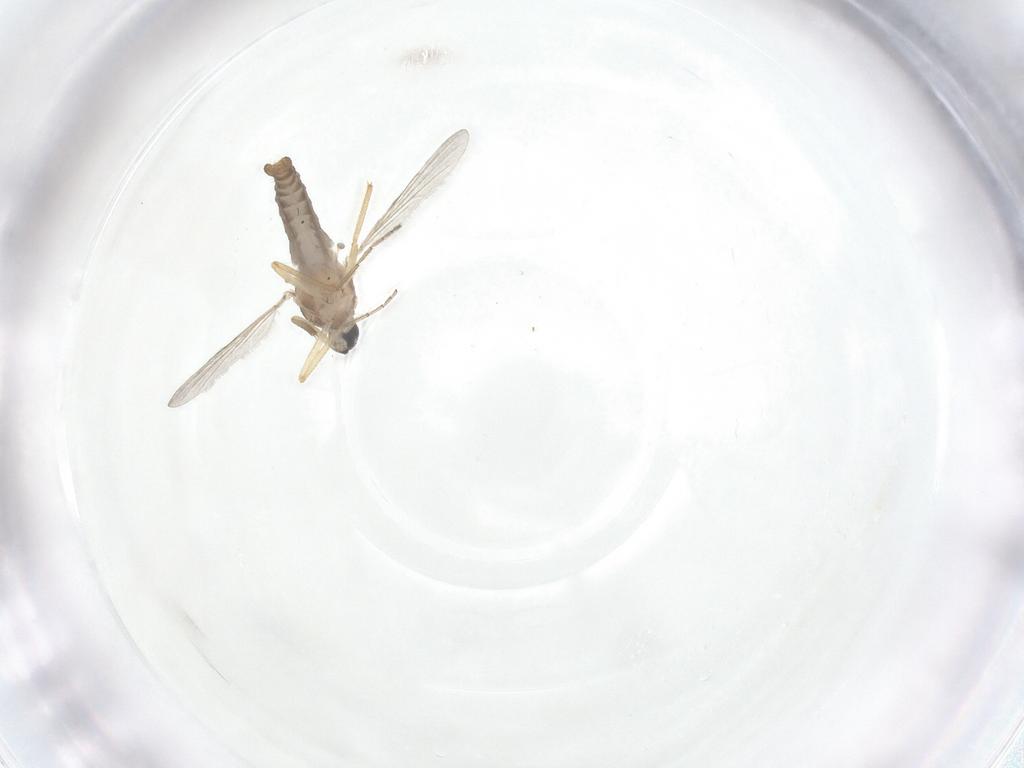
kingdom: Animalia
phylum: Arthropoda
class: Insecta
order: Diptera
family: Ceratopogonidae
